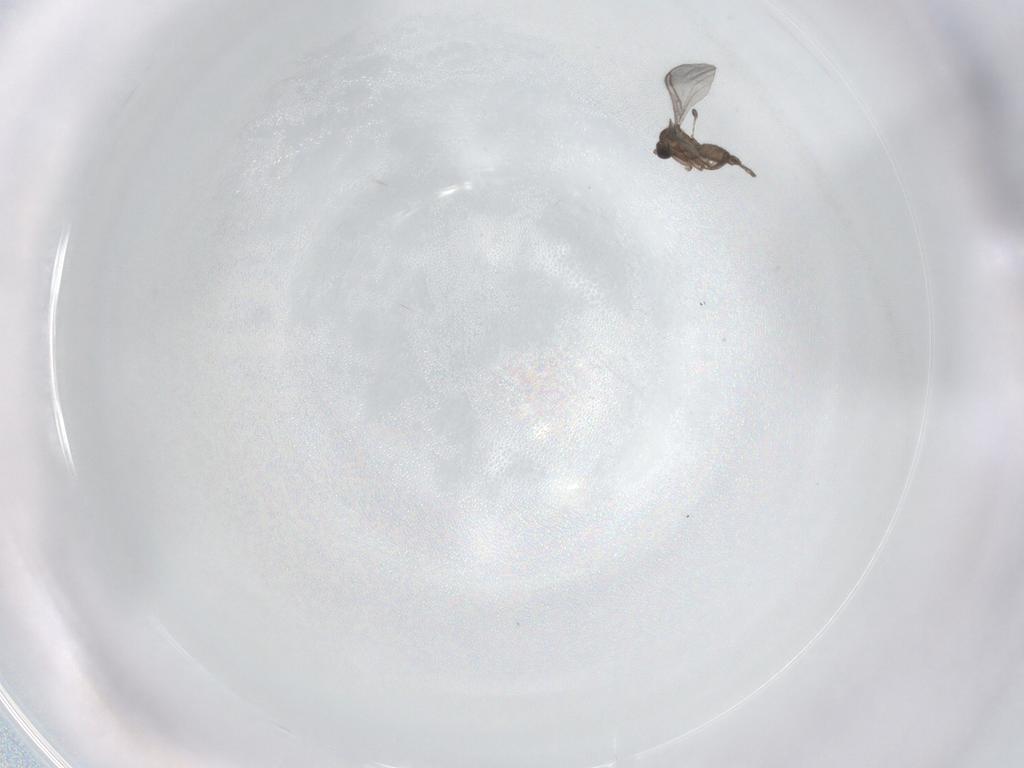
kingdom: Animalia
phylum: Arthropoda
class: Insecta
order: Diptera
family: Sciaridae
